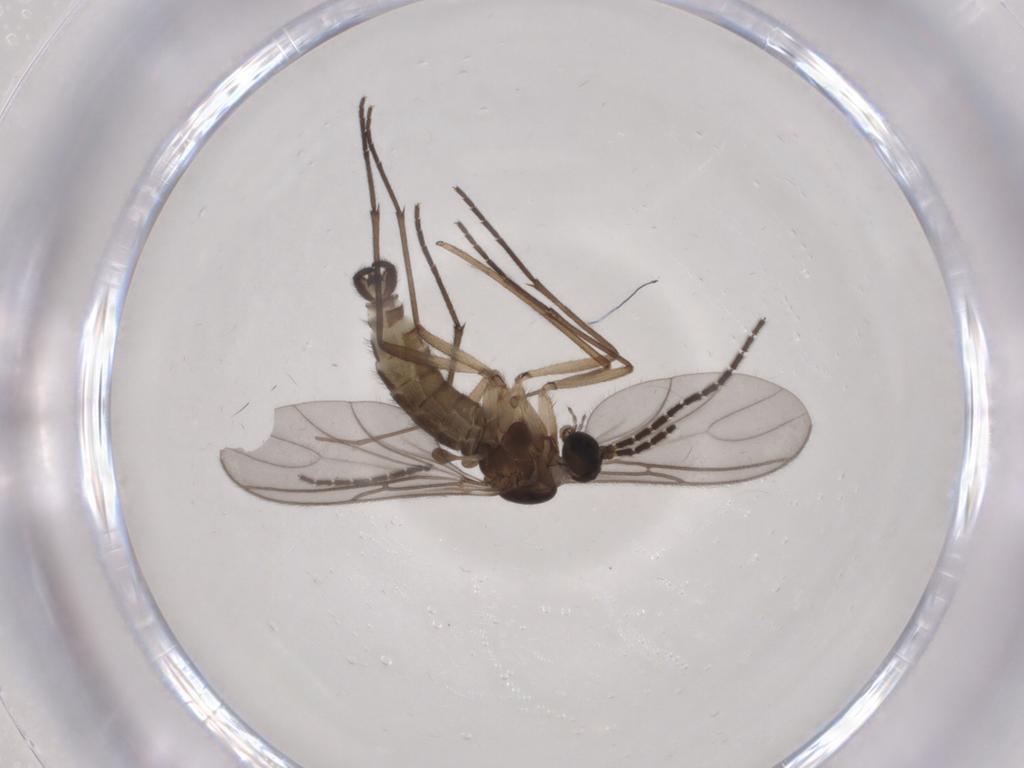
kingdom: Animalia
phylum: Arthropoda
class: Insecta
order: Diptera
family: Sciaridae
